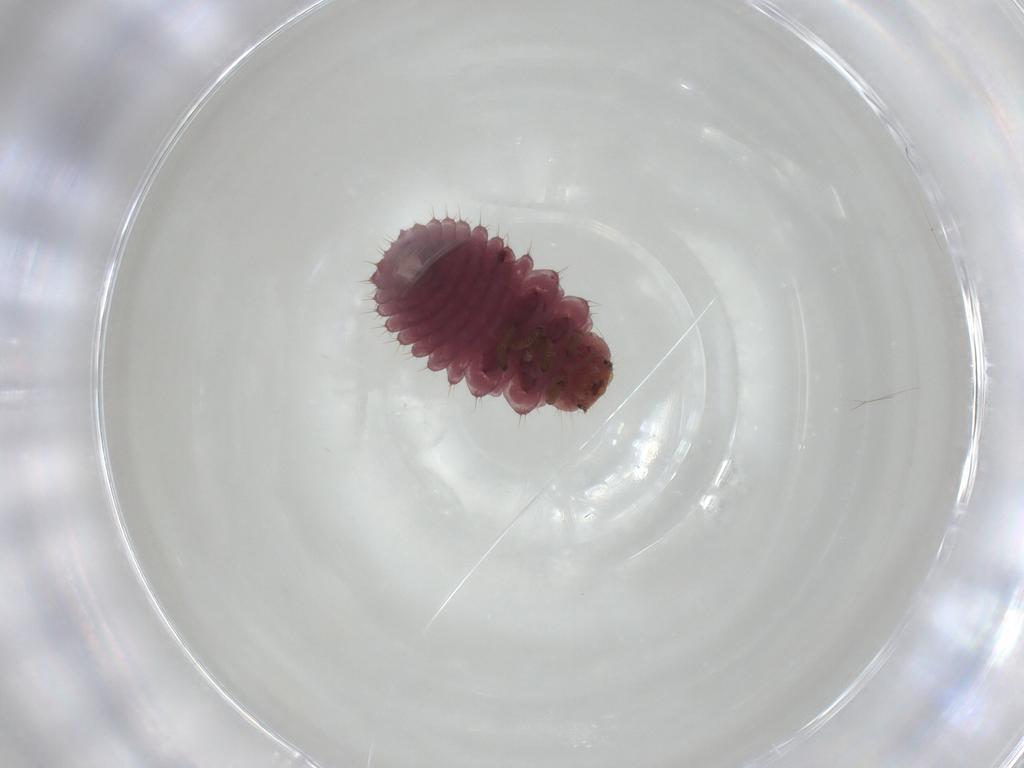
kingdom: Animalia
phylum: Arthropoda
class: Insecta
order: Coleoptera
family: Coccinellidae
